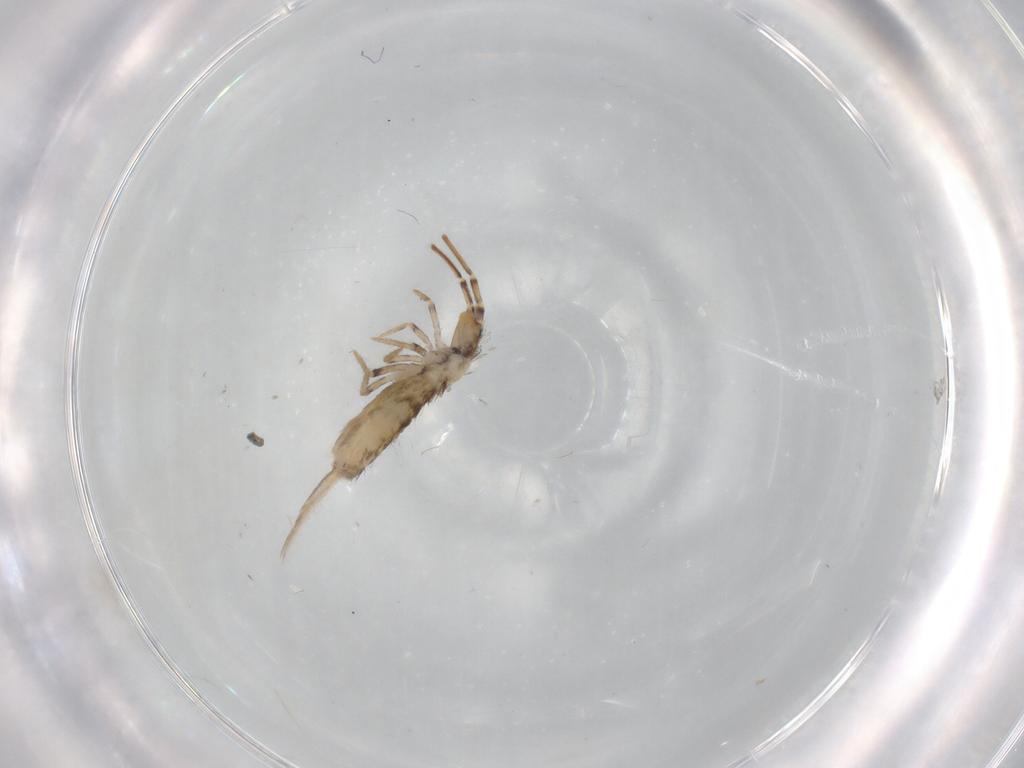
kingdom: Animalia
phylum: Arthropoda
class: Collembola
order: Entomobryomorpha
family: Entomobryidae
